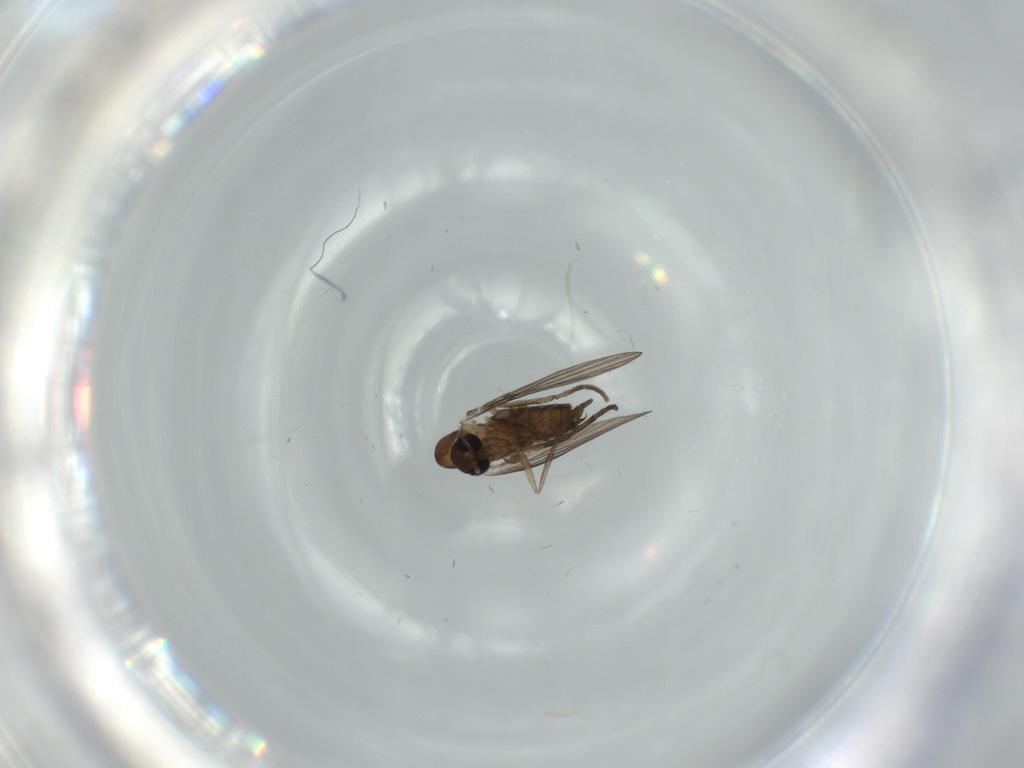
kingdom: Animalia
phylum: Arthropoda
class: Insecta
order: Diptera
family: Phoridae
